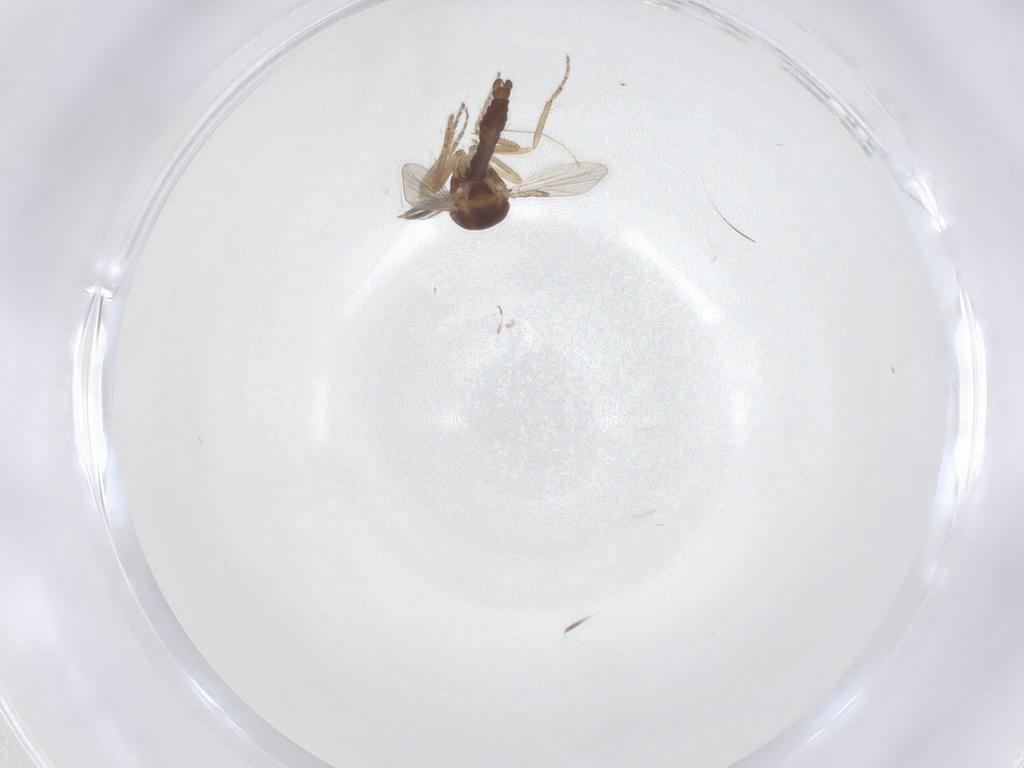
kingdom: Animalia
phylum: Arthropoda
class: Insecta
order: Diptera
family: Ceratopogonidae
